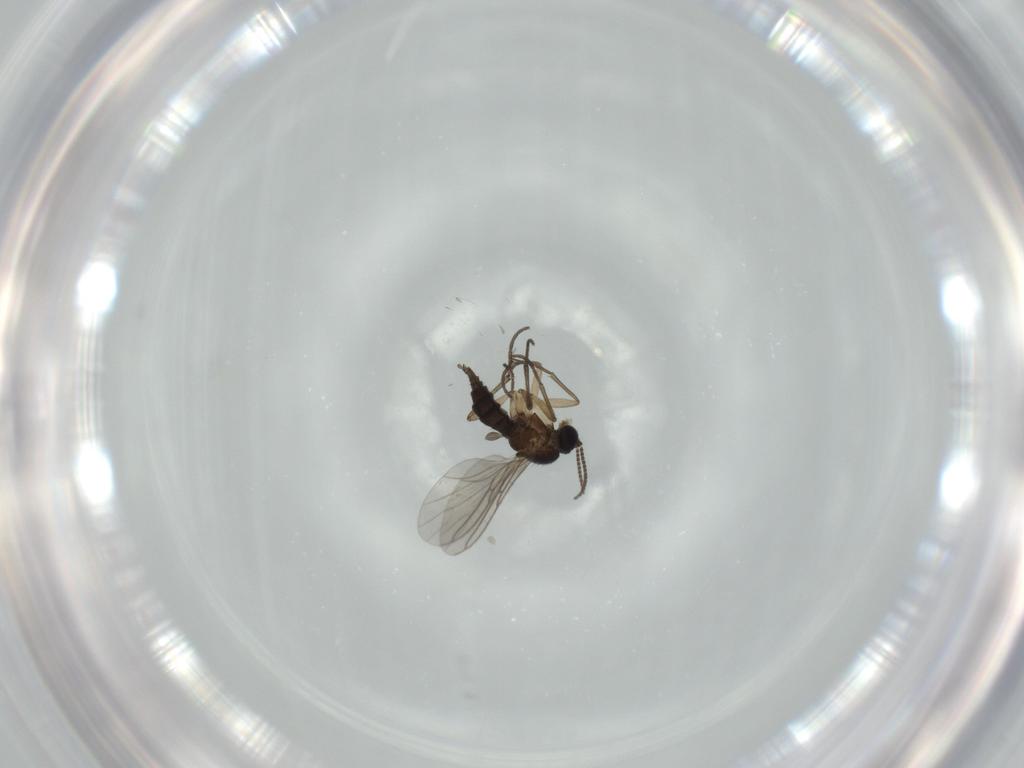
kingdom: Animalia
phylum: Arthropoda
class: Insecta
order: Diptera
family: Sciaridae
